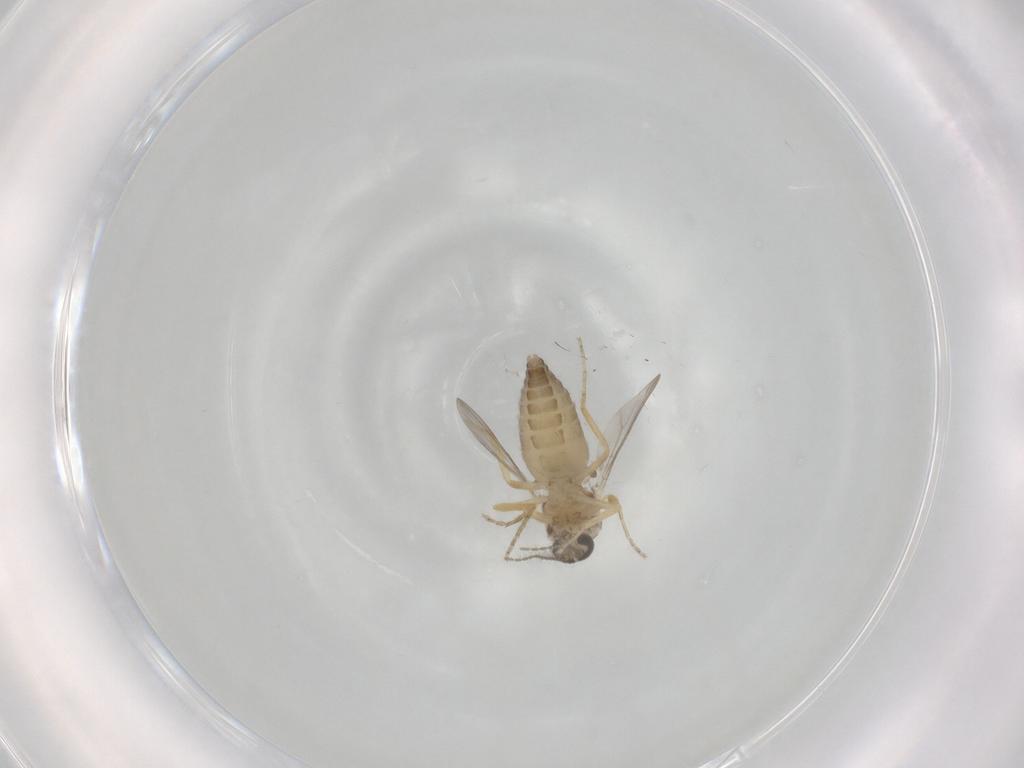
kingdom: Animalia
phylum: Arthropoda
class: Insecta
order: Diptera
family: Ceratopogonidae
